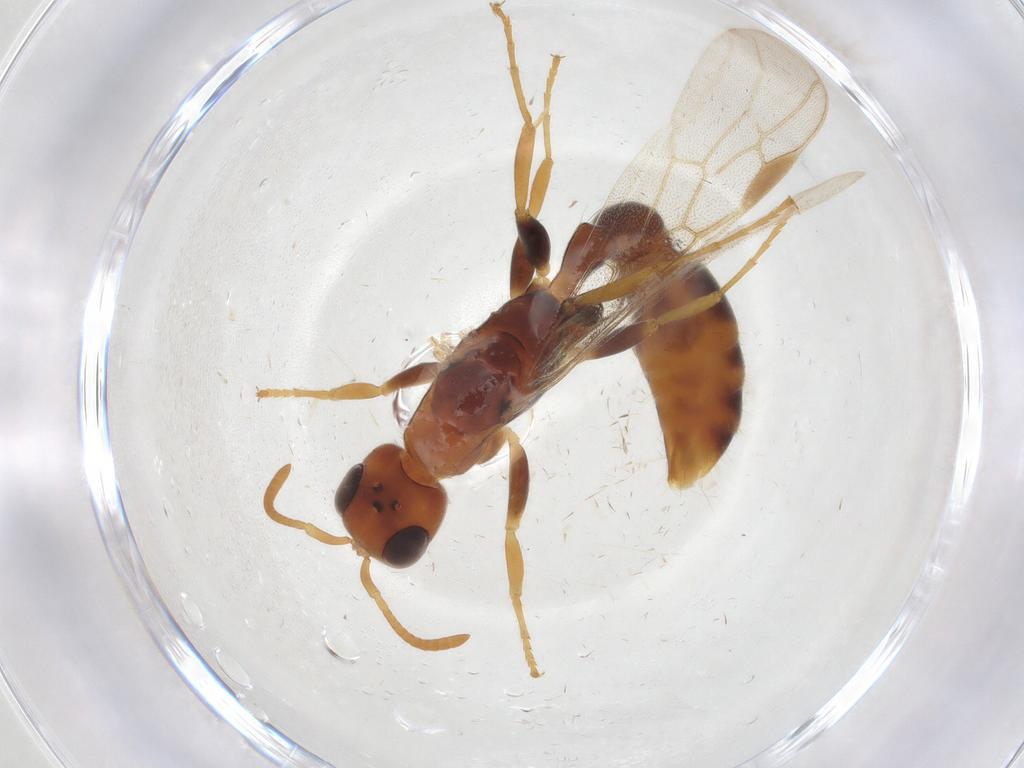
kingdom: Animalia
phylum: Arthropoda
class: Insecta
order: Hymenoptera
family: Formicidae
